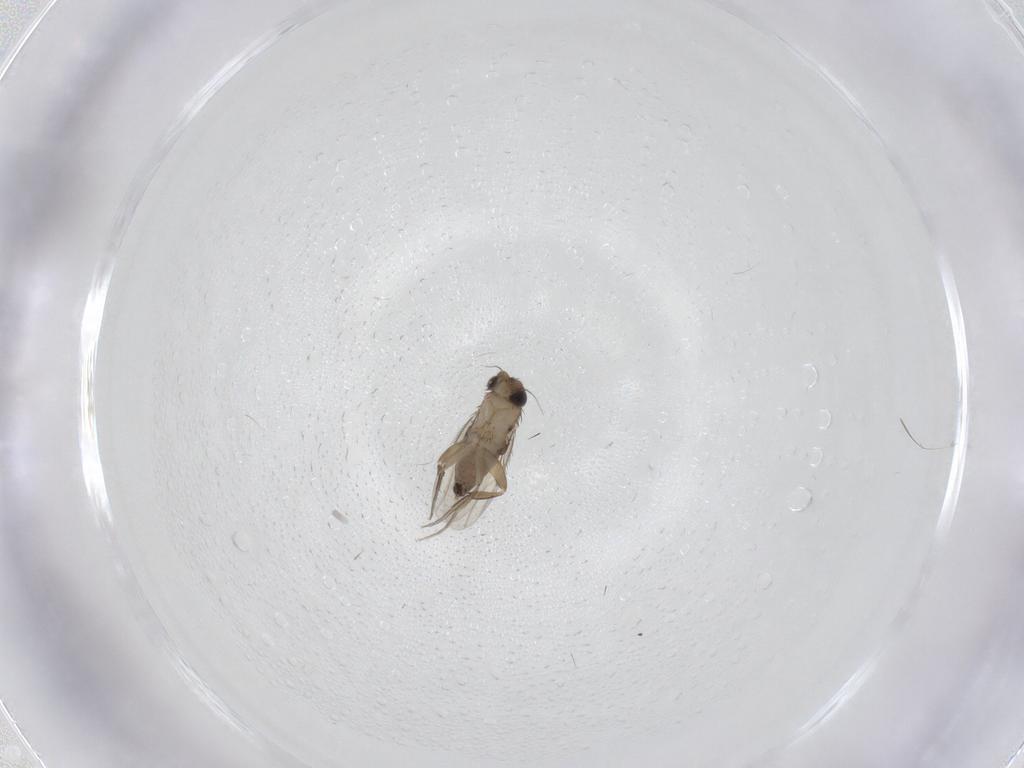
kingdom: Animalia
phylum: Arthropoda
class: Insecta
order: Diptera
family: Phoridae
